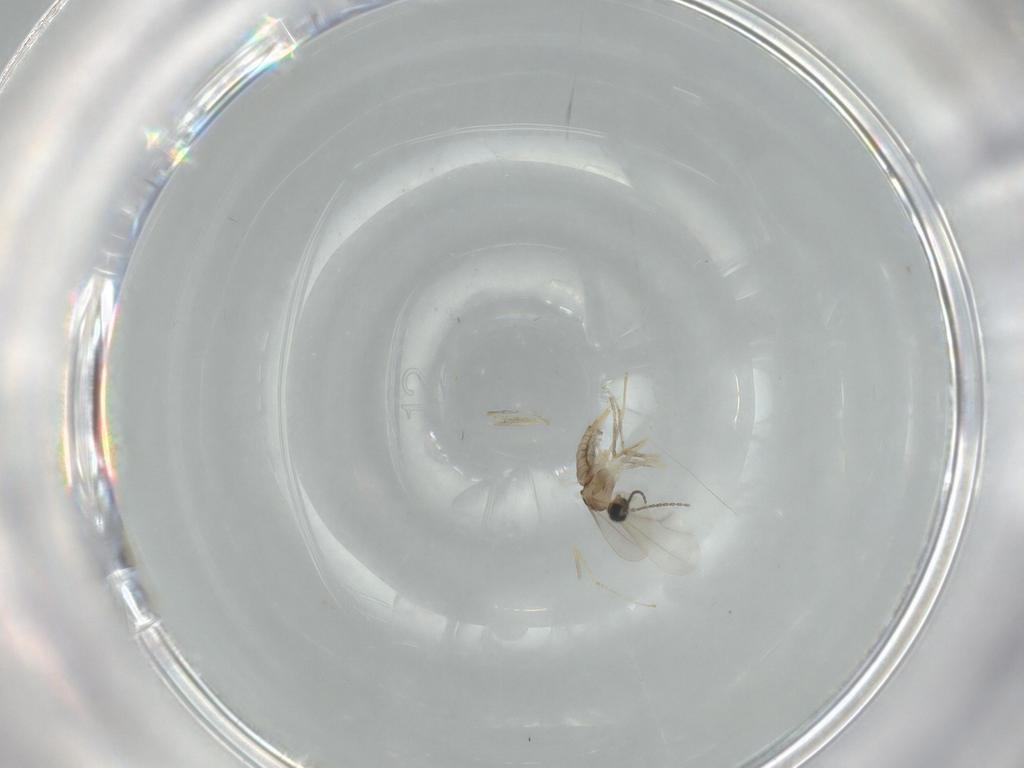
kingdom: Animalia
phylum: Arthropoda
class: Insecta
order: Diptera
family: Cecidomyiidae
